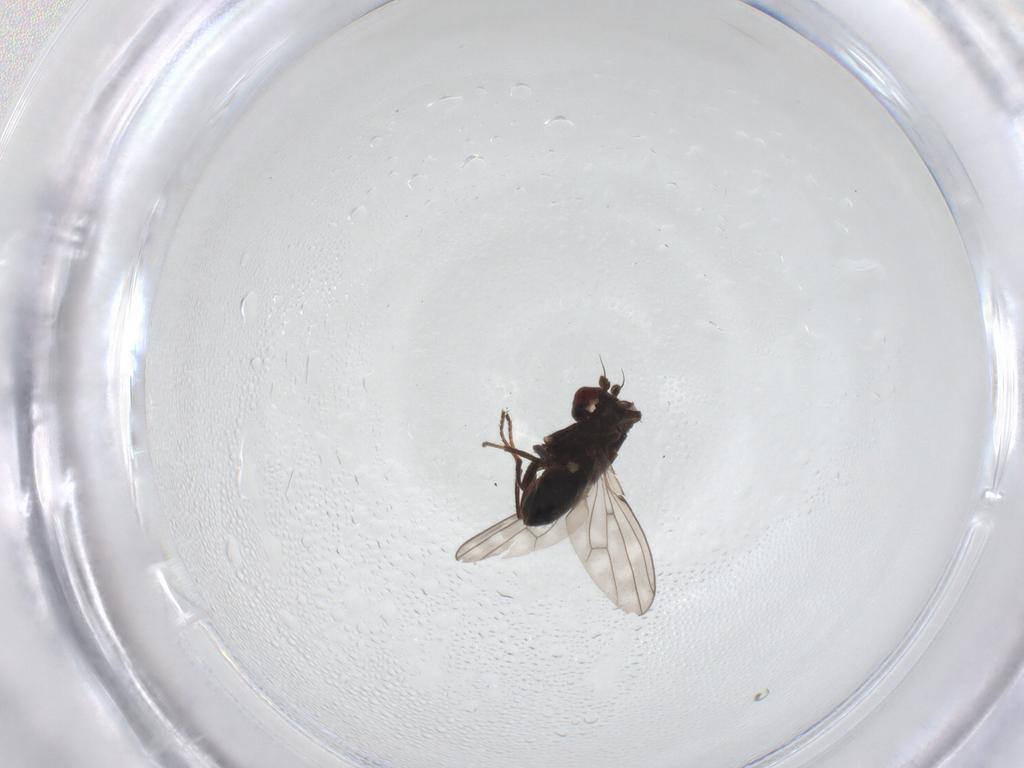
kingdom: Animalia
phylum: Arthropoda
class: Insecta
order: Diptera
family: Ephydridae
